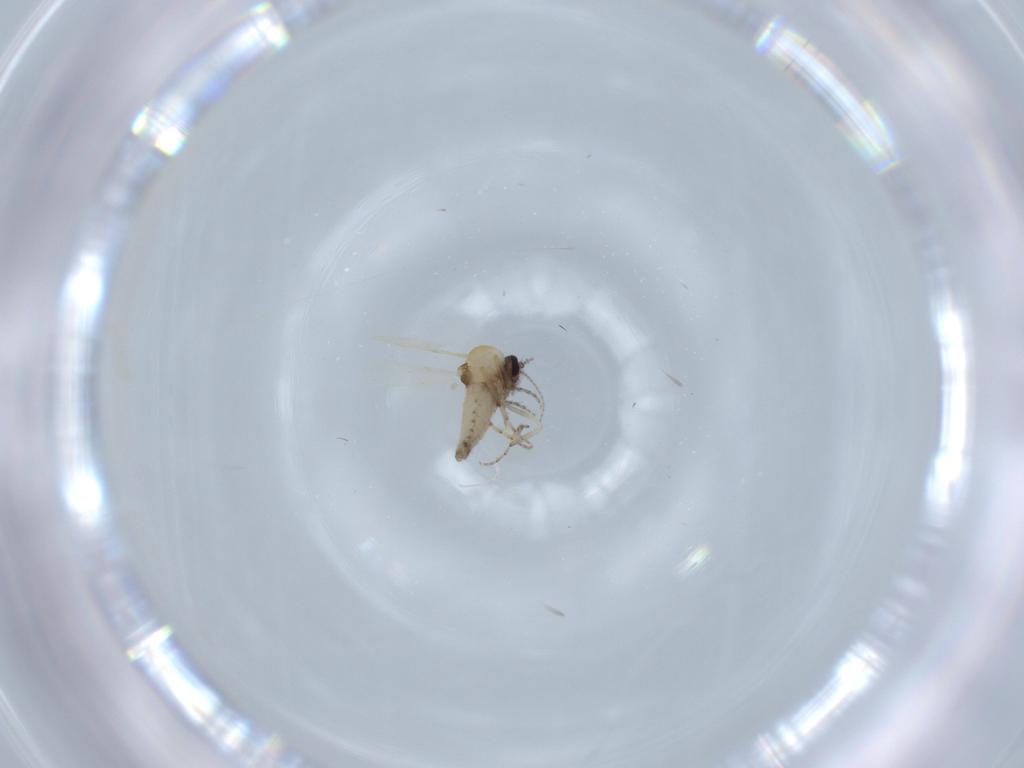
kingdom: Animalia
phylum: Arthropoda
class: Insecta
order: Diptera
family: Ceratopogonidae
